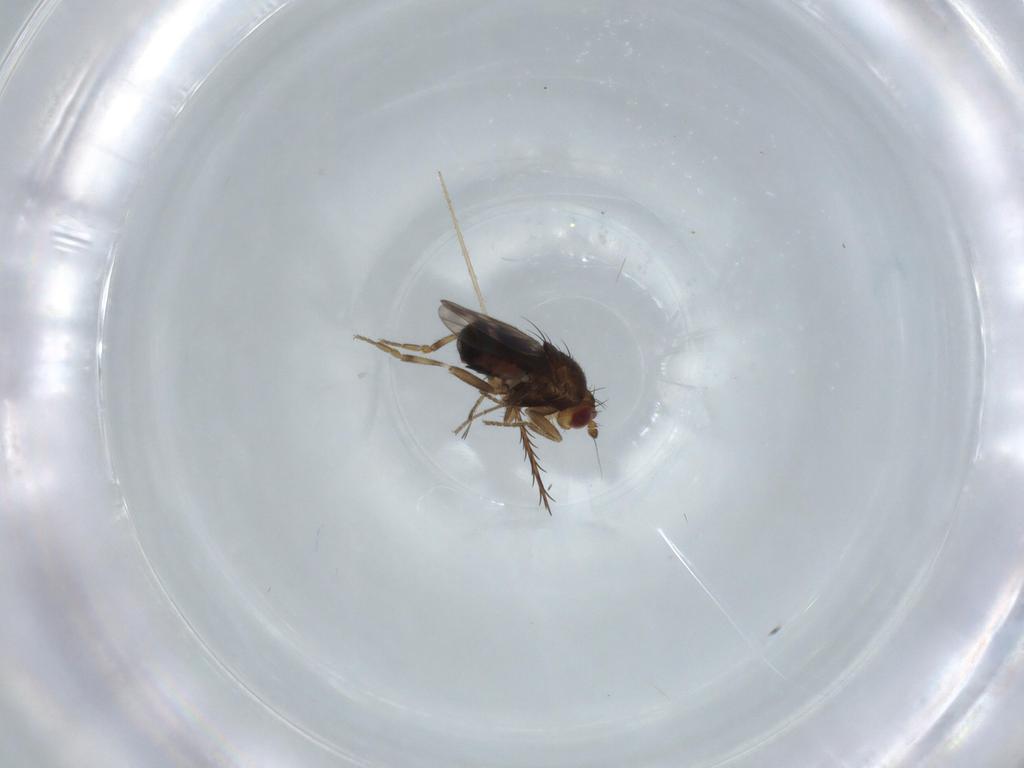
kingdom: Animalia
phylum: Arthropoda
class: Insecta
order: Diptera
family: Sphaeroceridae
